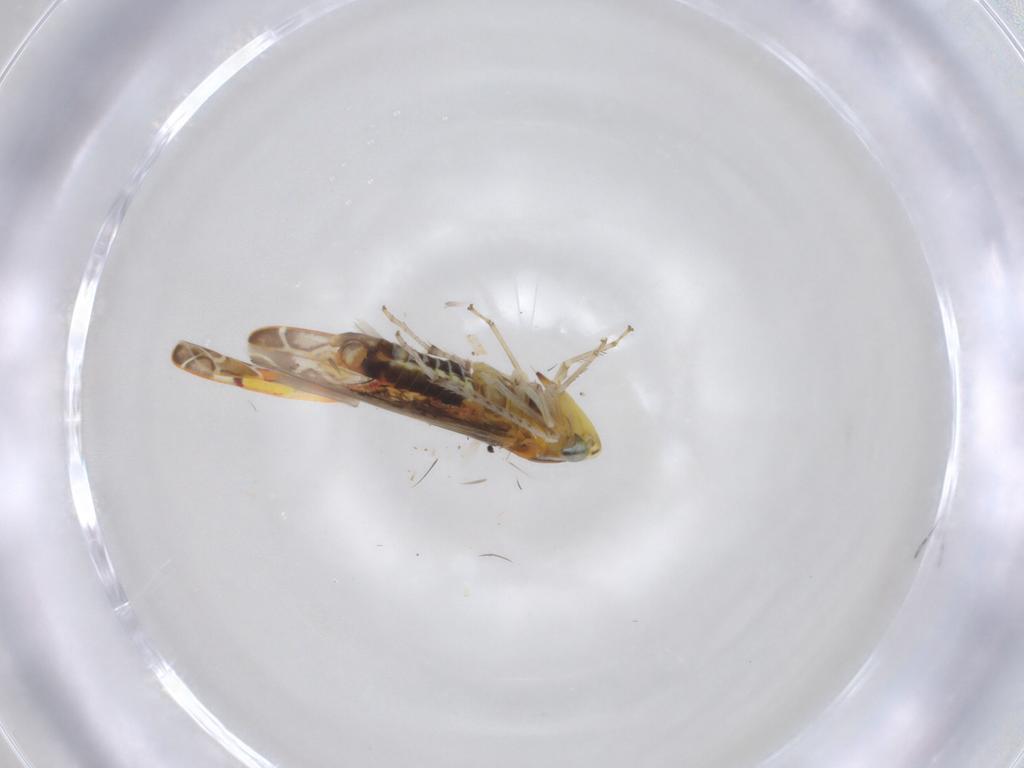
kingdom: Animalia
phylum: Arthropoda
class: Insecta
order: Hemiptera
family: Cicadellidae
